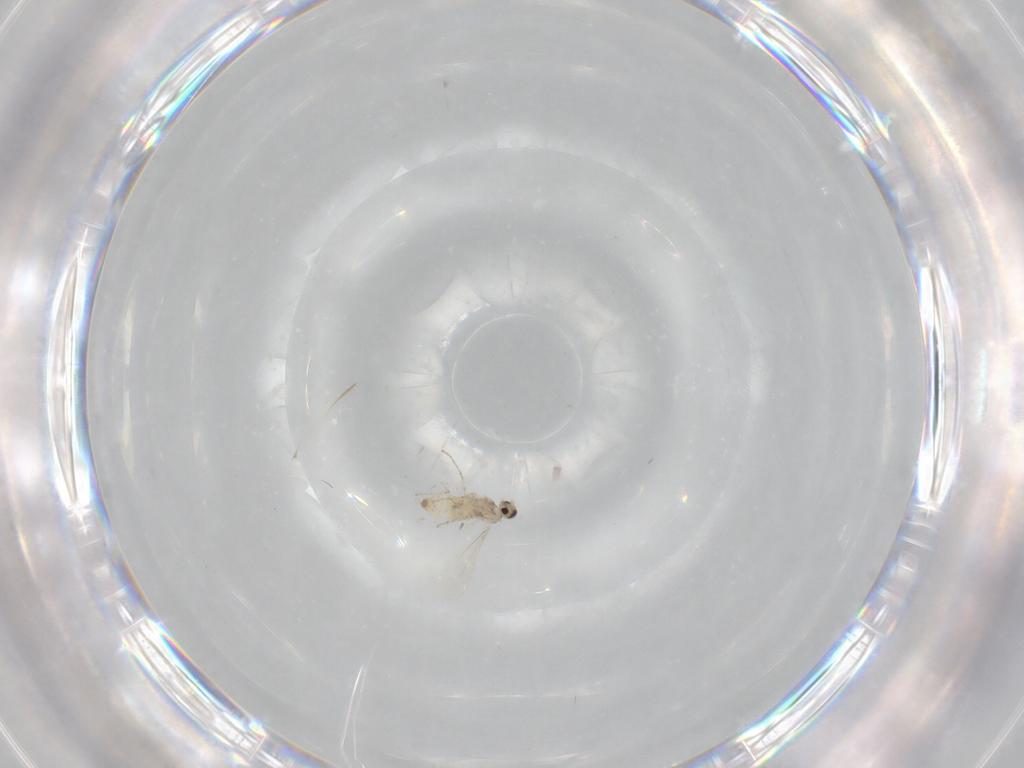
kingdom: Animalia
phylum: Arthropoda
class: Insecta
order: Diptera
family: Cecidomyiidae
